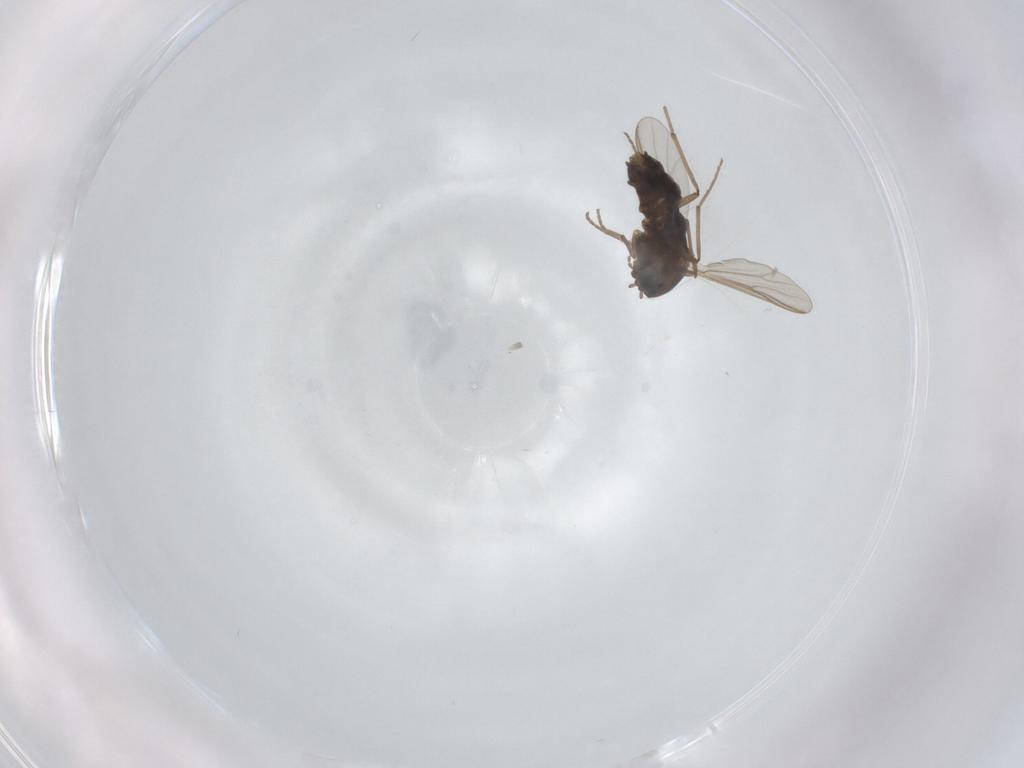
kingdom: Animalia
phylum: Arthropoda
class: Insecta
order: Diptera
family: Chironomidae
